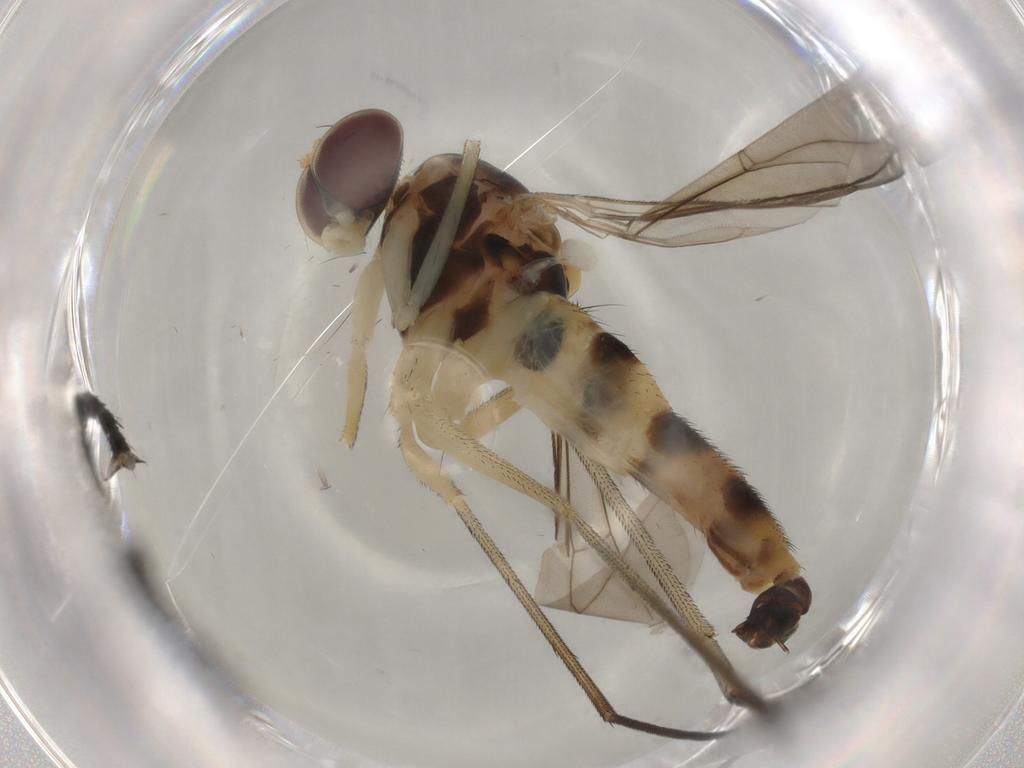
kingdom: Animalia
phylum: Arthropoda
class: Insecta
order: Diptera
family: Muscidae
